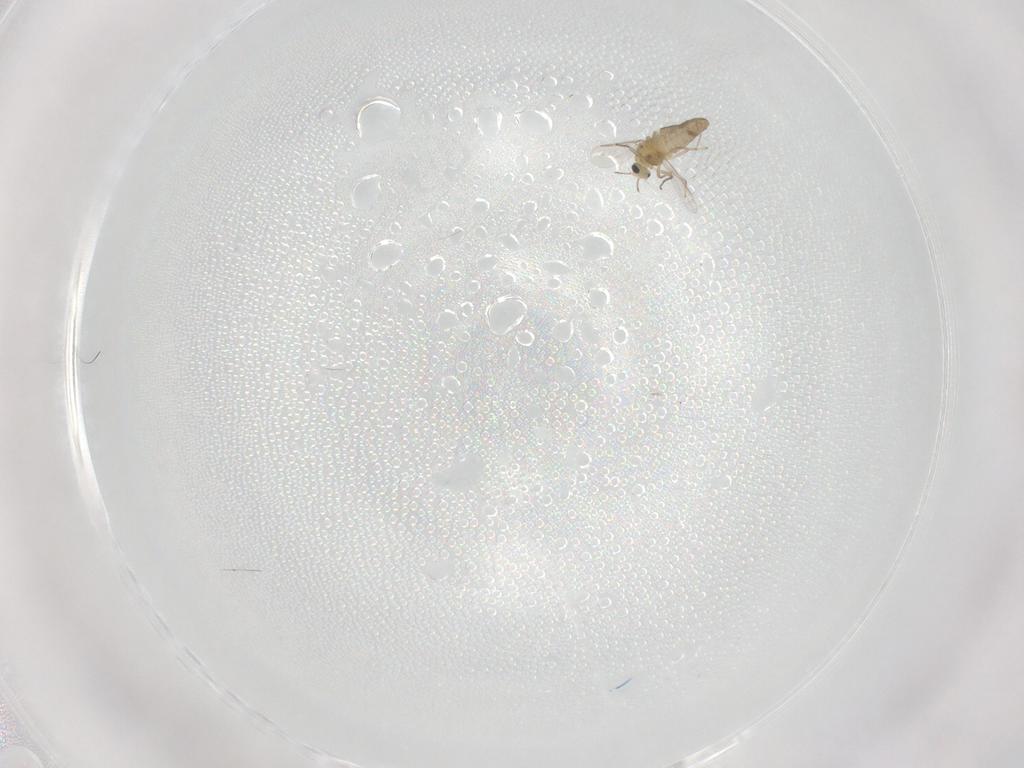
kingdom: Animalia
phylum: Arthropoda
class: Insecta
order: Diptera
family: Chironomidae
